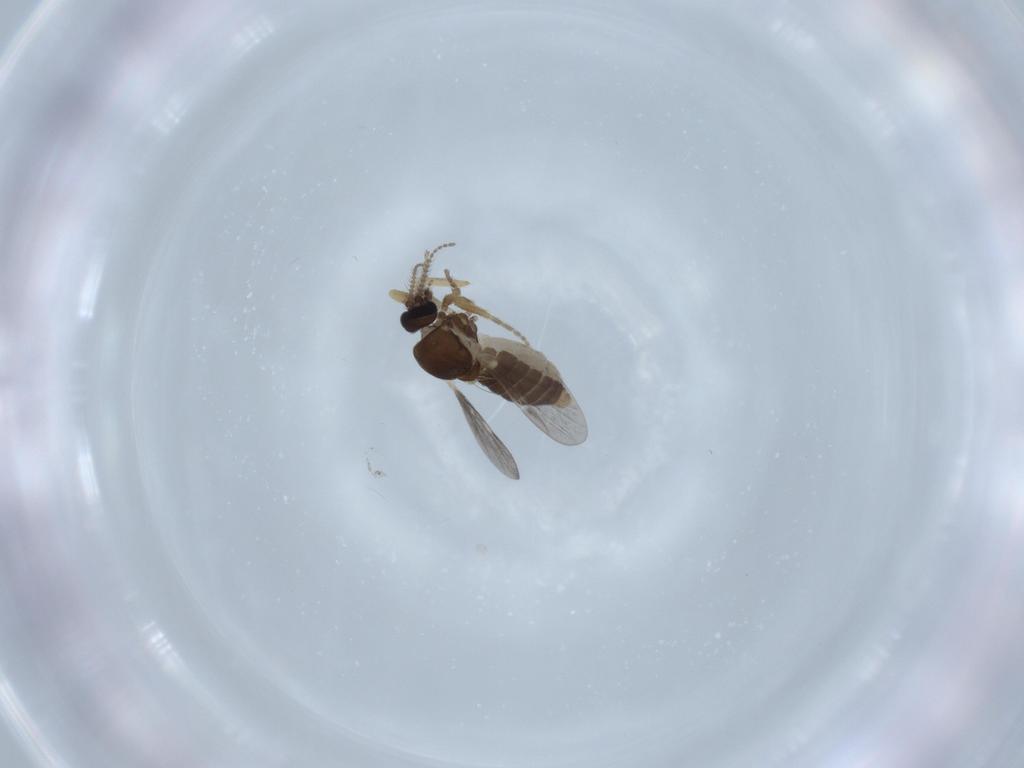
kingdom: Animalia
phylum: Arthropoda
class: Insecta
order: Diptera
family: Ceratopogonidae
